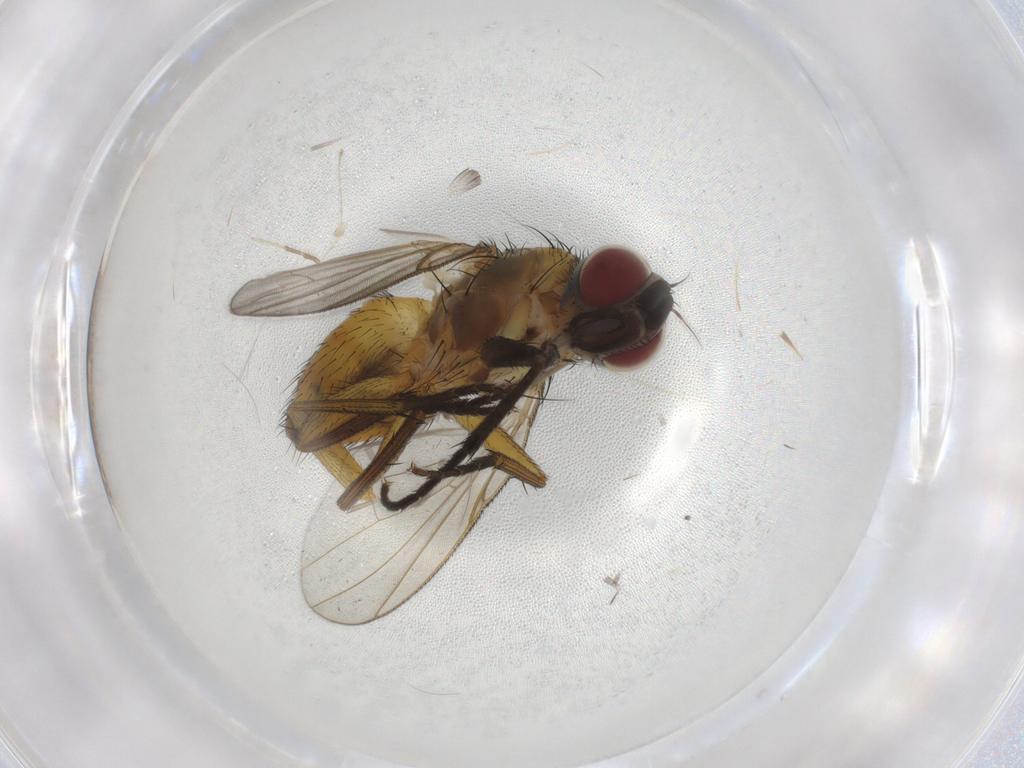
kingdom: Animalia
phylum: Arthropoda
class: Insecta
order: Diptera
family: Muscidae
